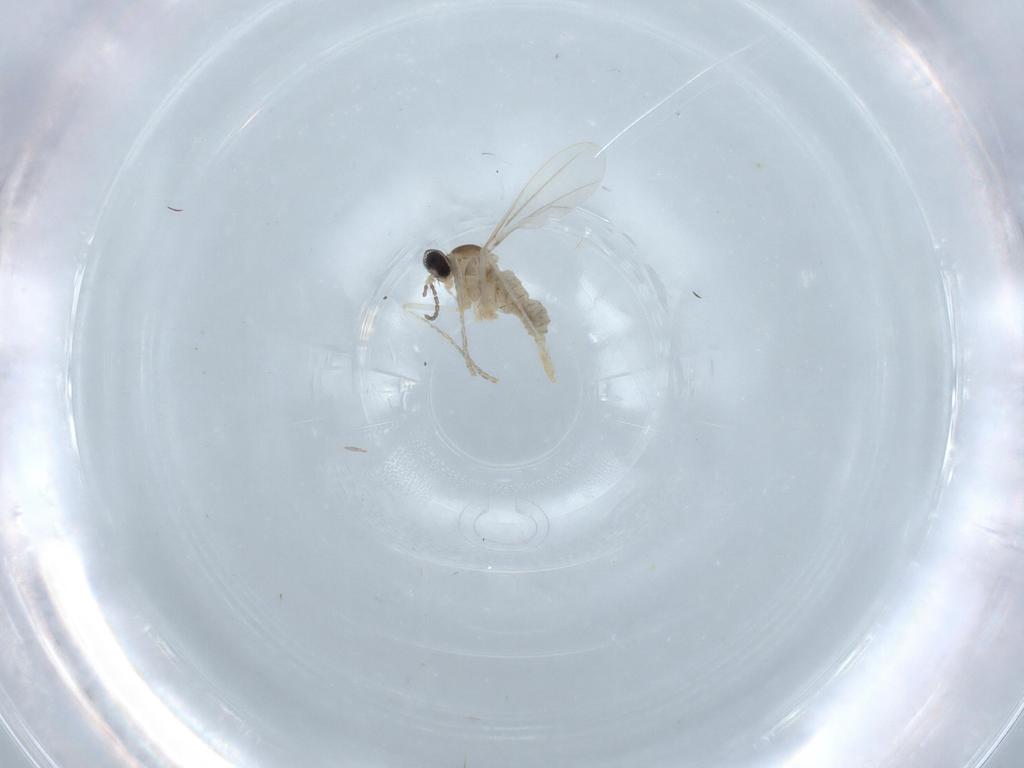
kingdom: Animalia
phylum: Arthropoda
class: Insecta
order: Diptera
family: Cecidomyiidae
